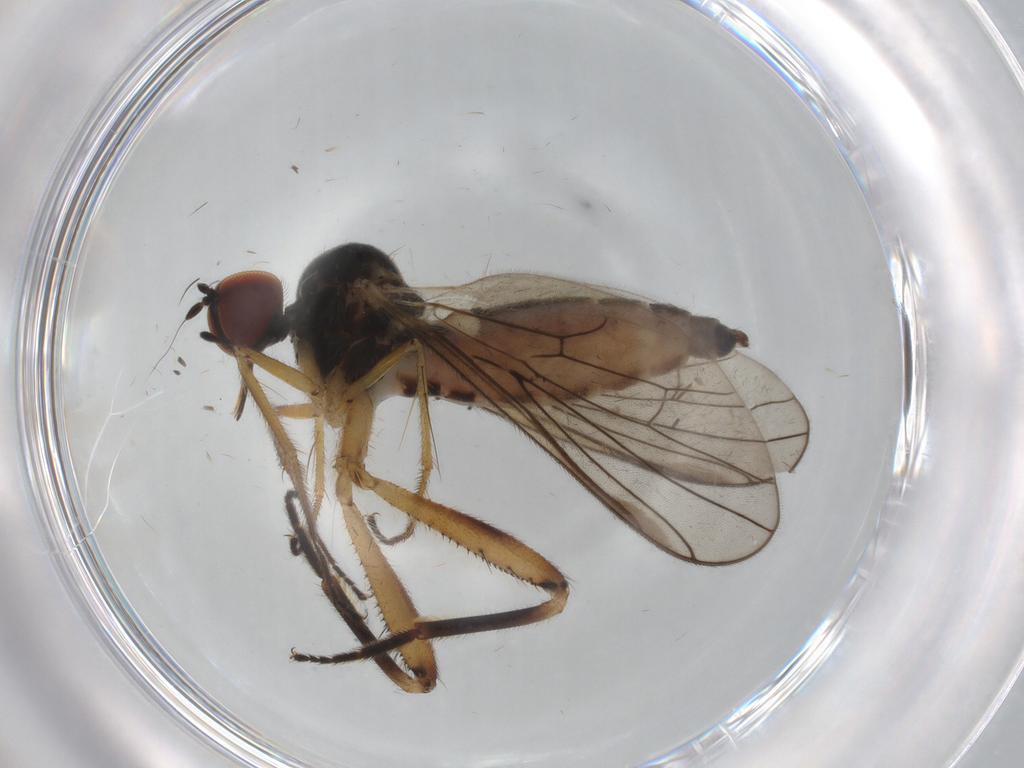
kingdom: Animalia
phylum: Arthropoda
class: Insecta
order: Diptera
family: Hybotidae
